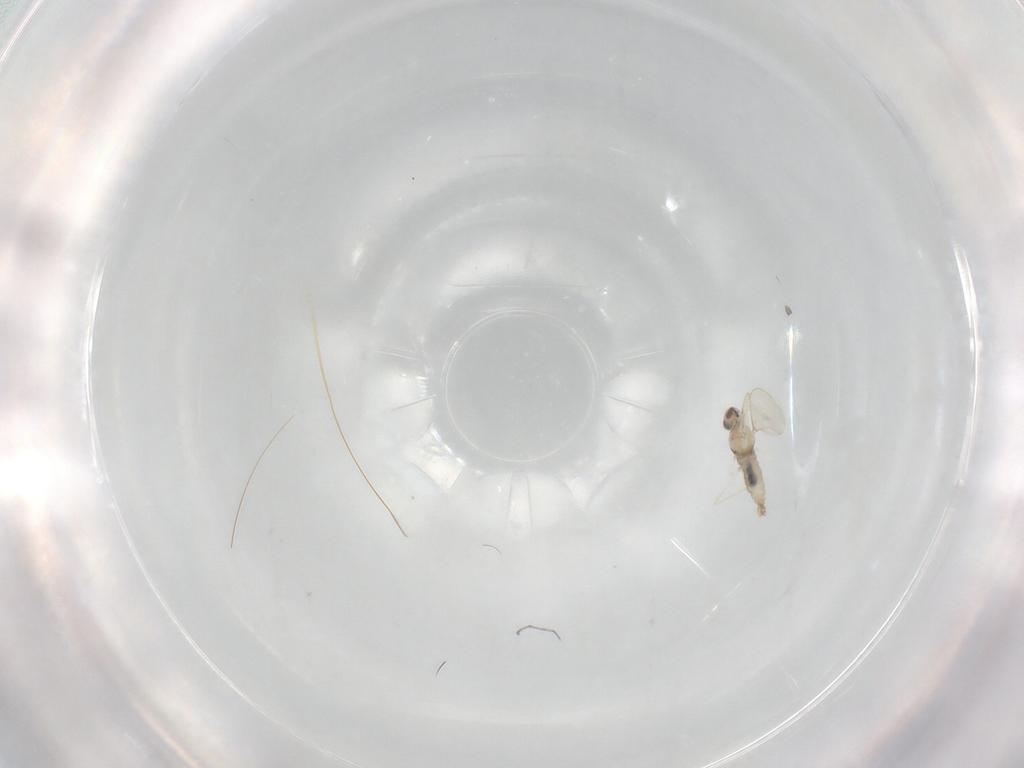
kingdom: Animalia
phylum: Arthropoda
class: Insecta
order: Diptera
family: Cecidomyiidae
